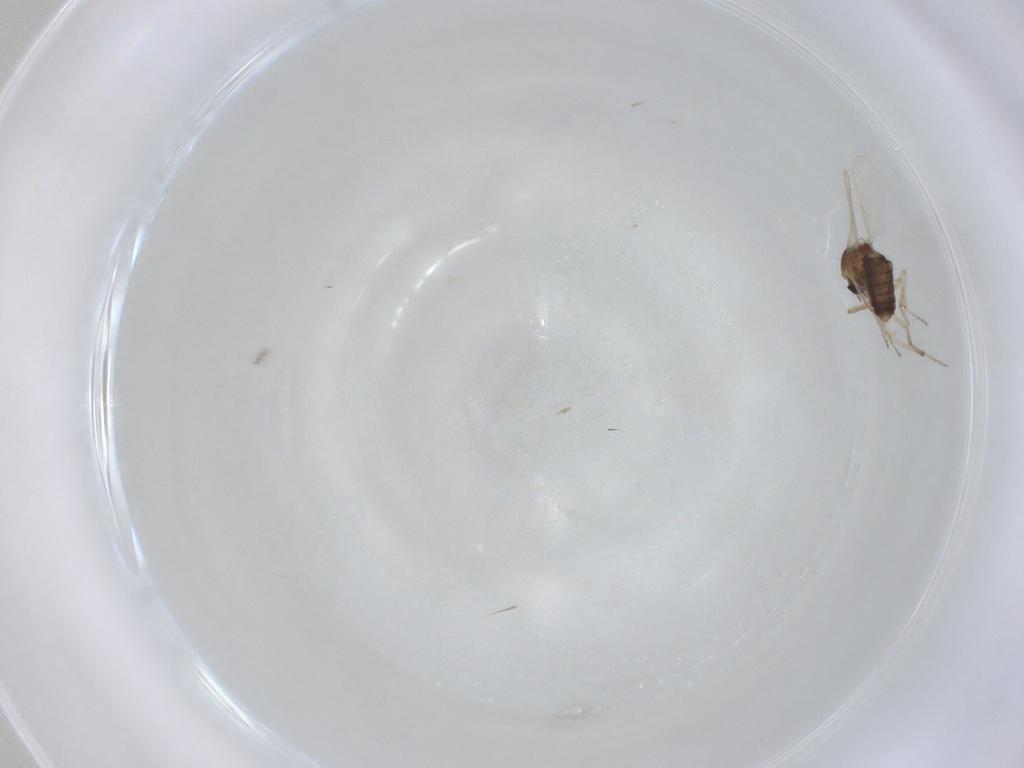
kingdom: Animalia
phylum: Arthropoda
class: Insecta
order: Diptera
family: Ceratopogonidae
